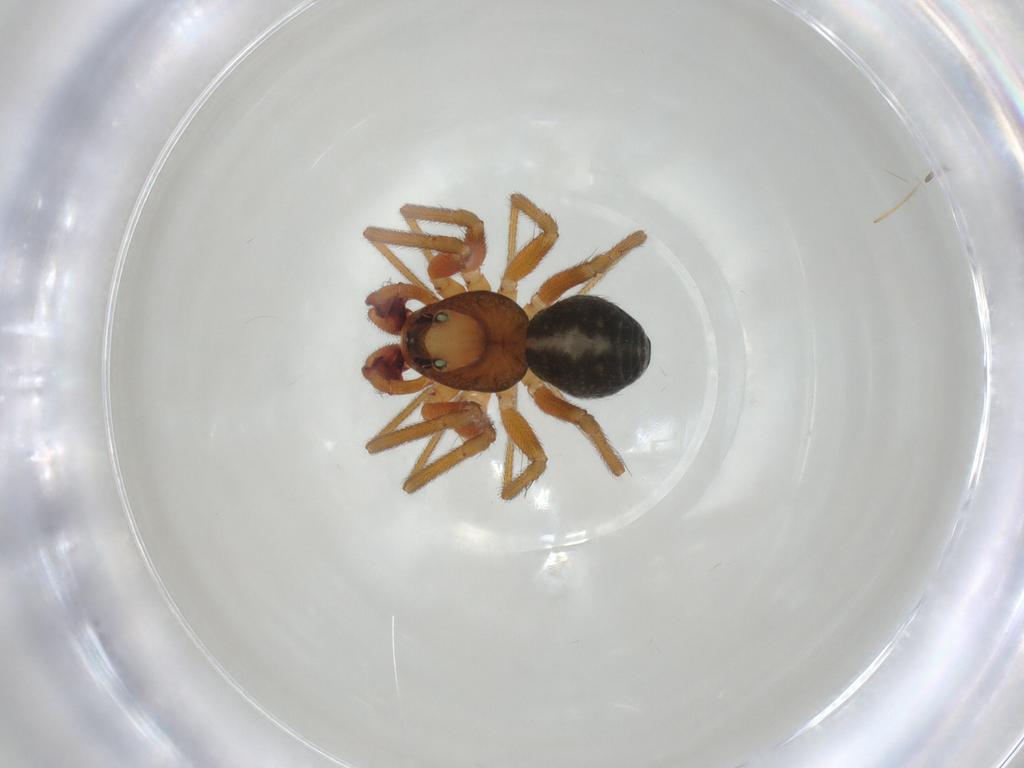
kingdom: Animalia
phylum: Arthropoda
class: Arachnida
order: Araneae
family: Linyphiidae
